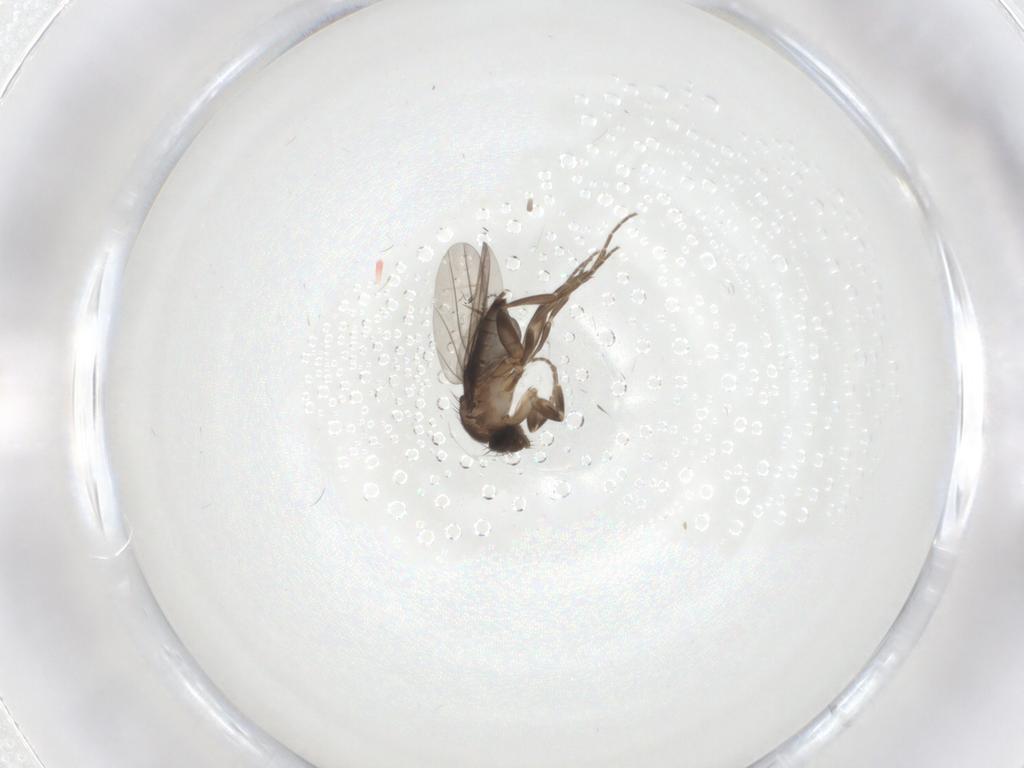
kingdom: Animalia
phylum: Arthropoda
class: Insecta
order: Diptera
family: Phoridae
